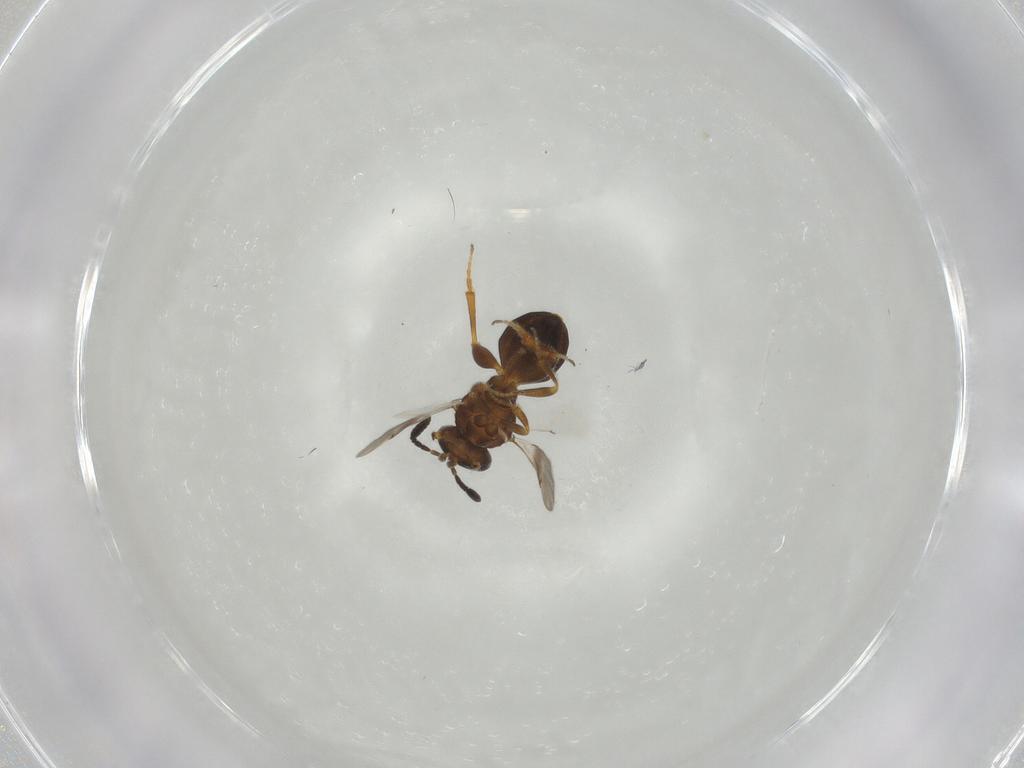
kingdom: Animalia
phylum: Arthropoda
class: Insecta
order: Hymenoptera
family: Scelionidae
